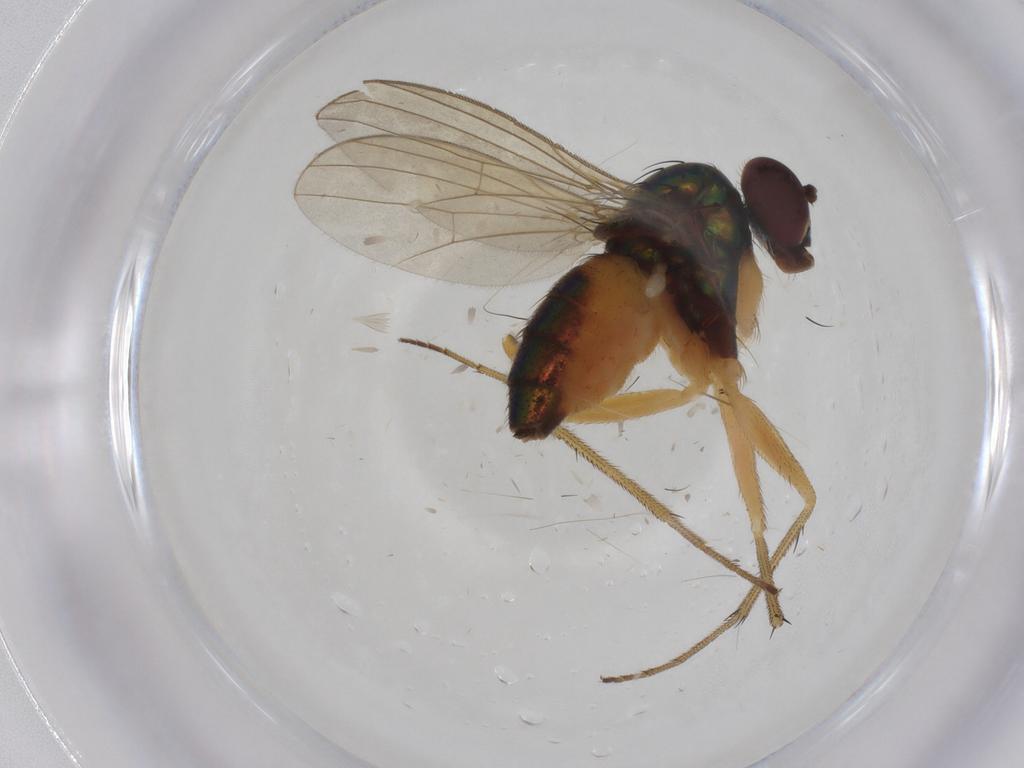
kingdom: Animalia
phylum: Arthropoda
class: Insecta
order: Diptera
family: Dolichopodidae
